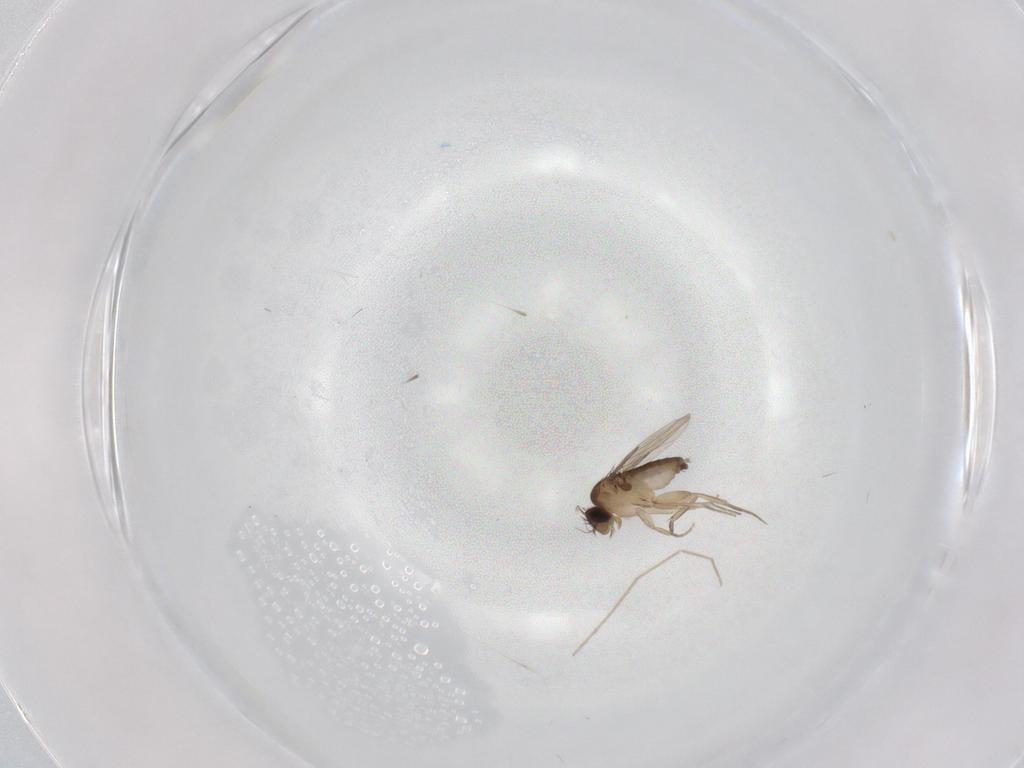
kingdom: Animalia
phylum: Arthropoda
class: Insecta
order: Diptera
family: Phoridae
